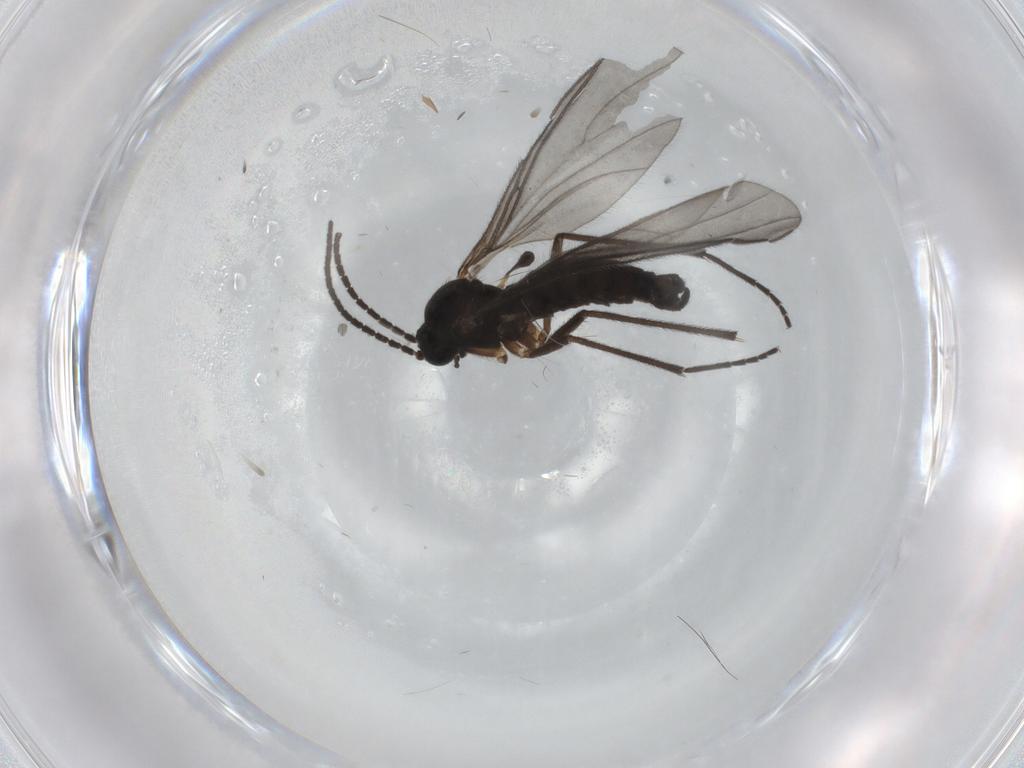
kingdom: Animalia
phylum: Arthropoda
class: Insecta
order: Diptera
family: Sciaridae
